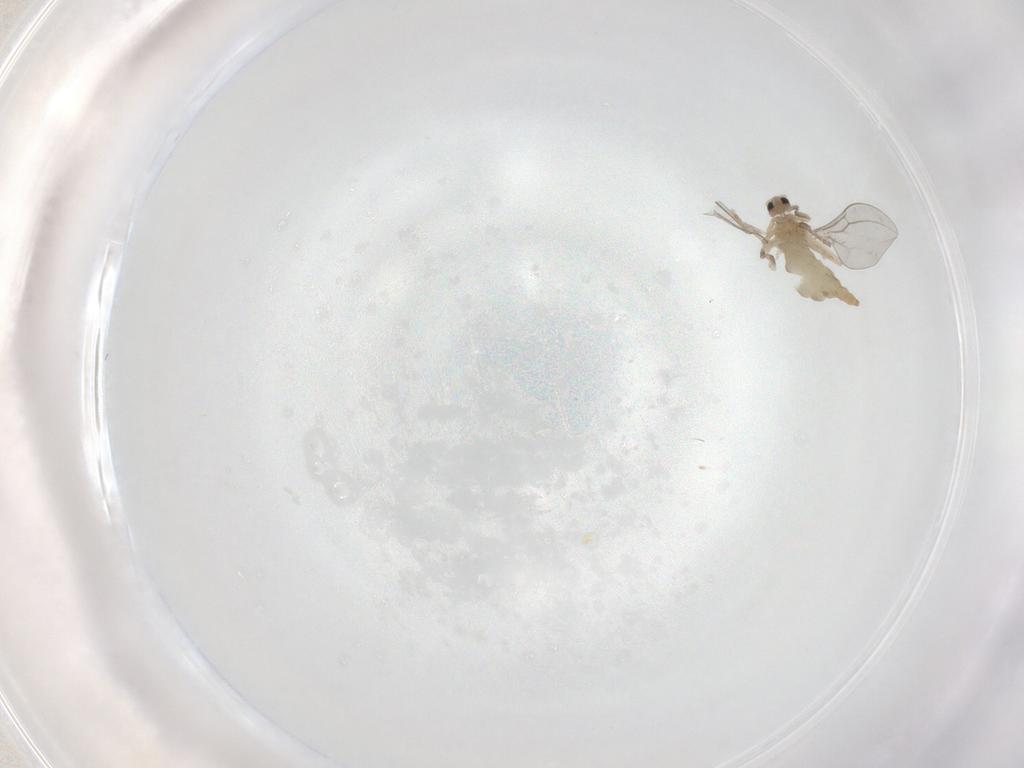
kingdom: Animalia
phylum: Arthropoda
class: Insecta
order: Diptera
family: Cecidomyiidae
